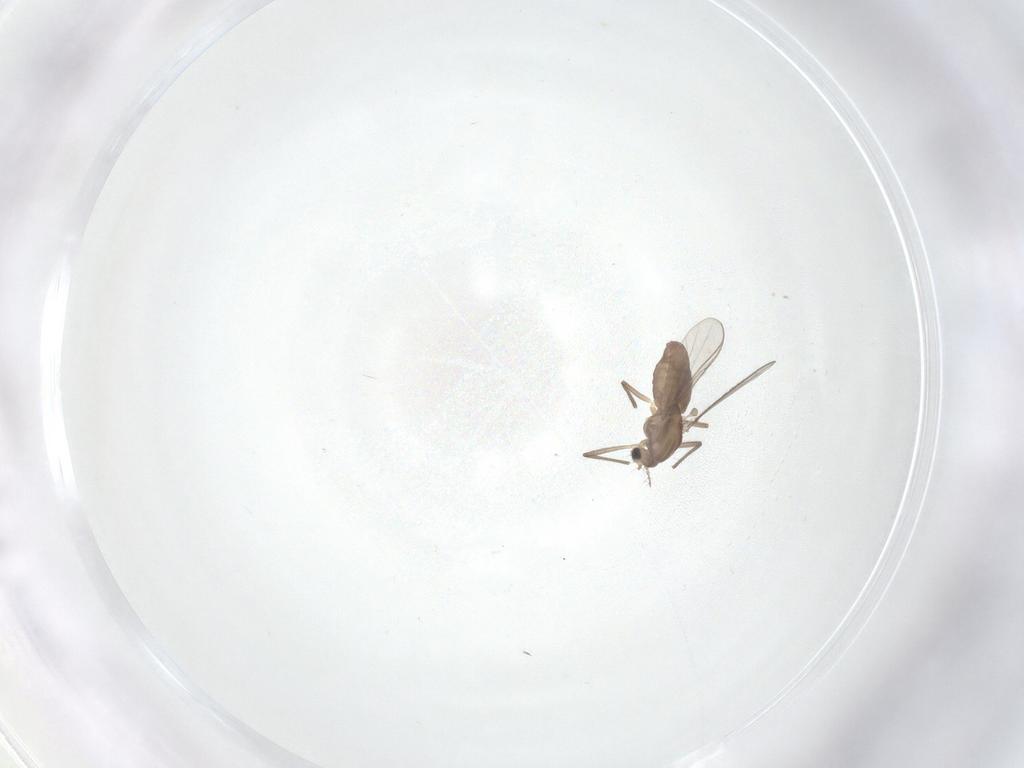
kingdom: Animalia
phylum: Arthropoda
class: Insecta
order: Diptera
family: Chironomidae
